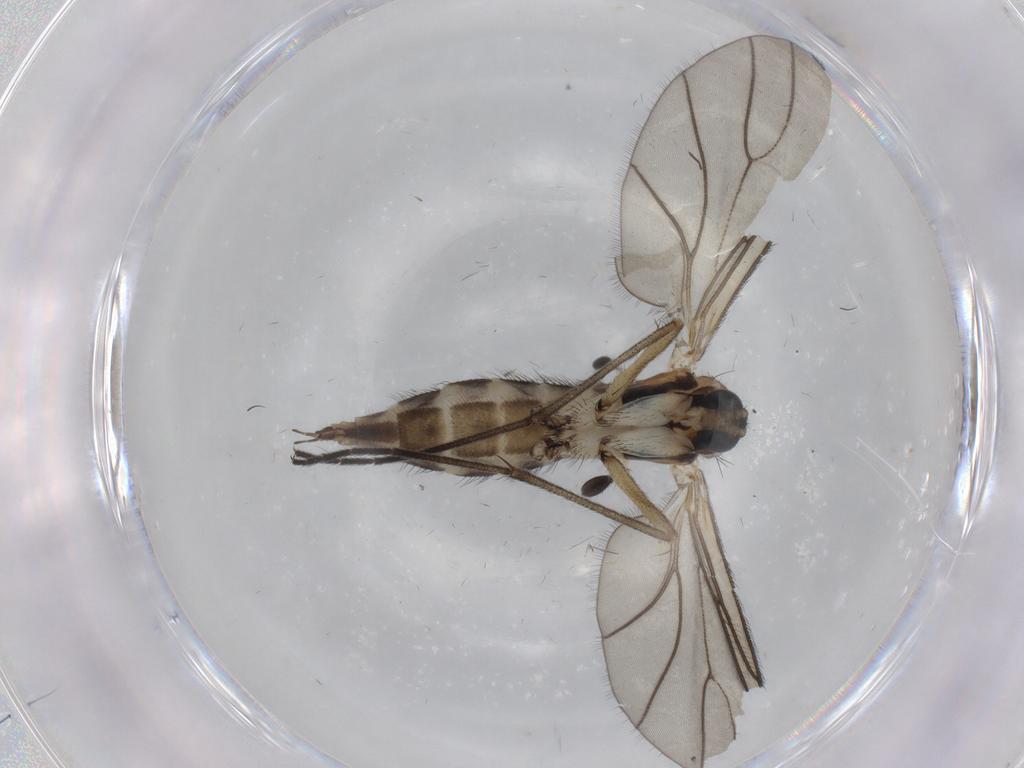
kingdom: Animalia
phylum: Arthropoda
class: Insecta
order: Diptera
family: Sciaridae
